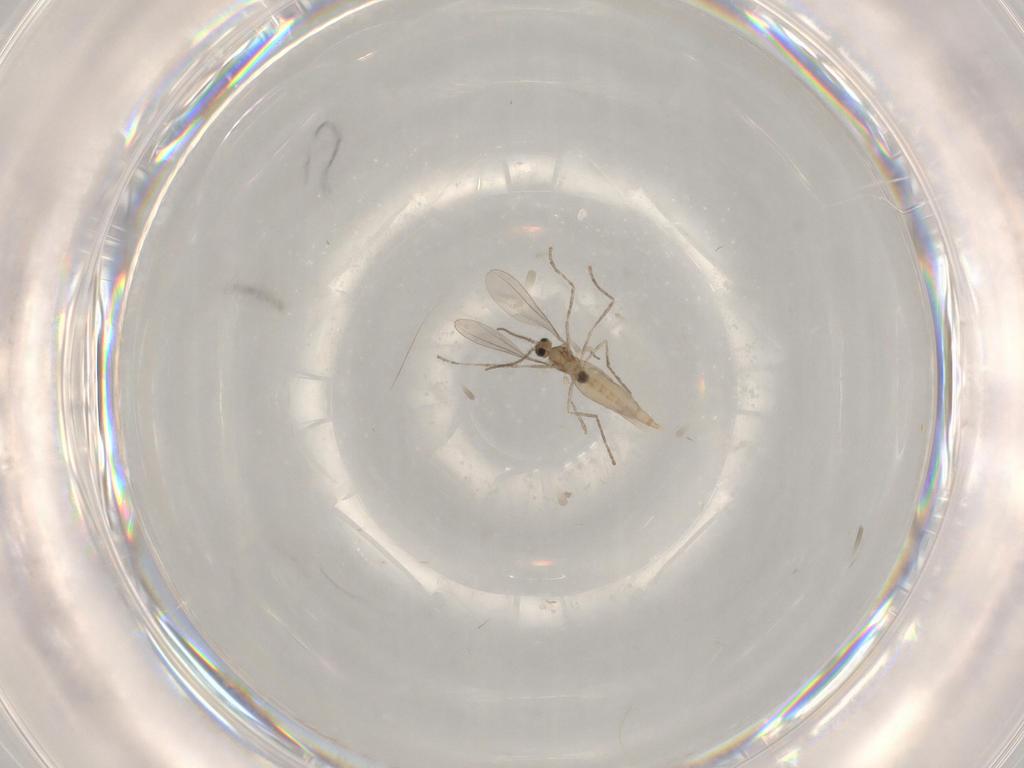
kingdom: Animalia
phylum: Arthropoda
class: Insecta
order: Diptera
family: Cecidomyiidae
